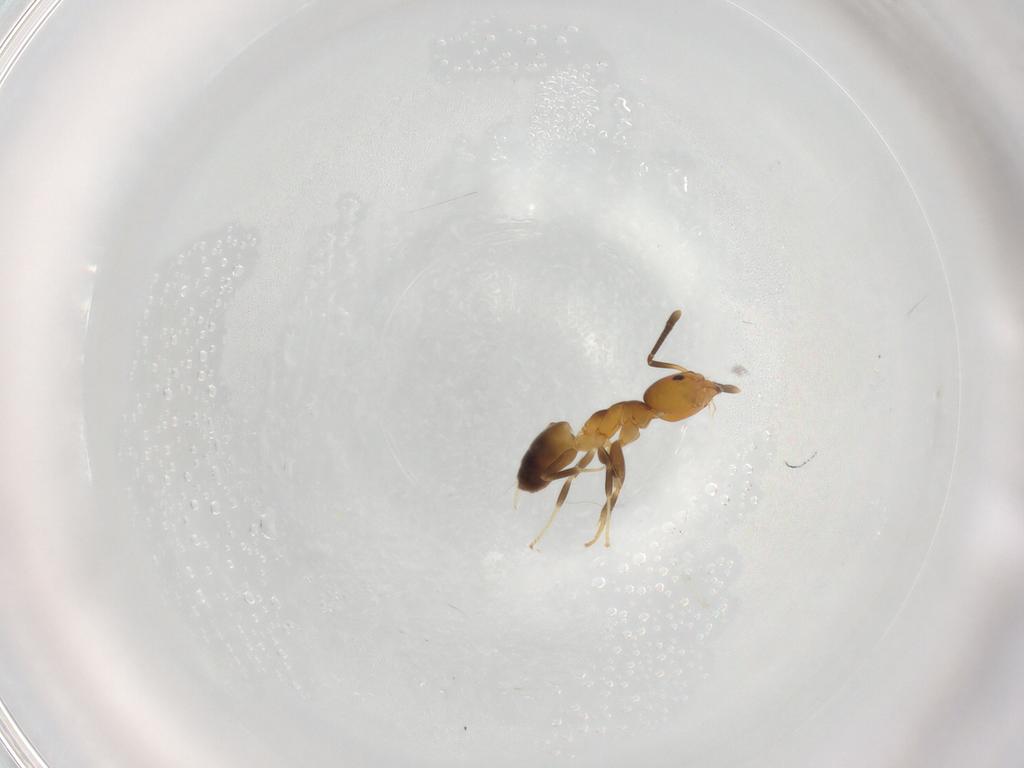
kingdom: Animalia
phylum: Arthropoda
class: Insecta
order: Hymenoptera
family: Formicidae
